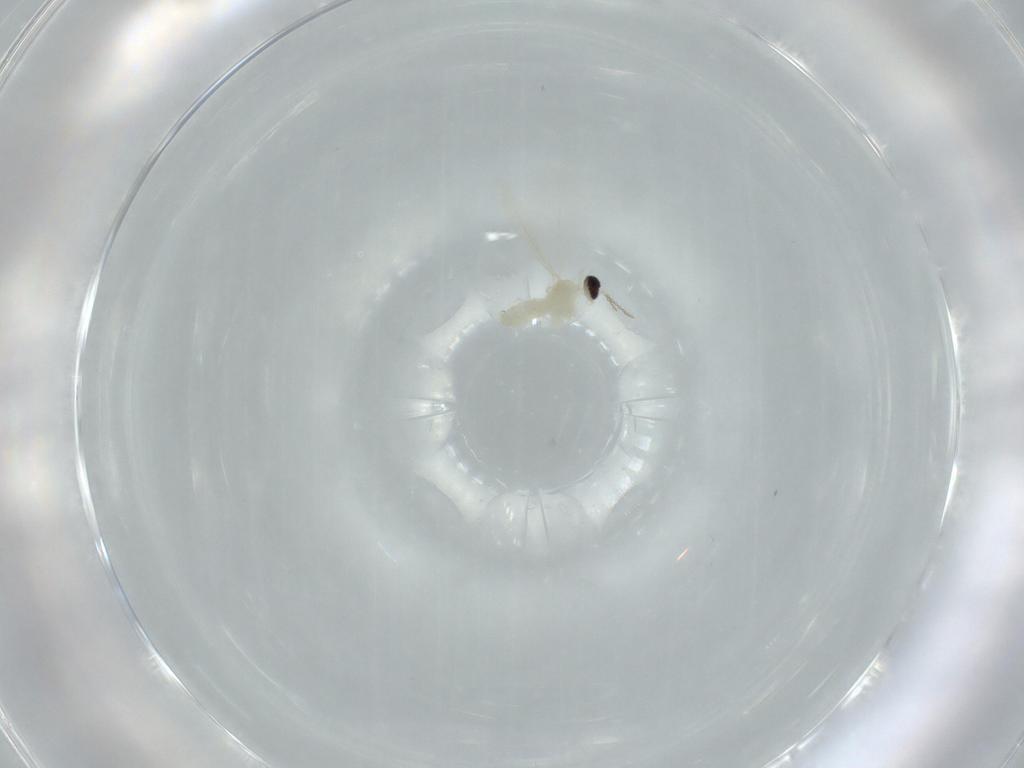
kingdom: Animalia
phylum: Arthropoda
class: Insecta
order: Diptera
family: Cecidomyiidae
